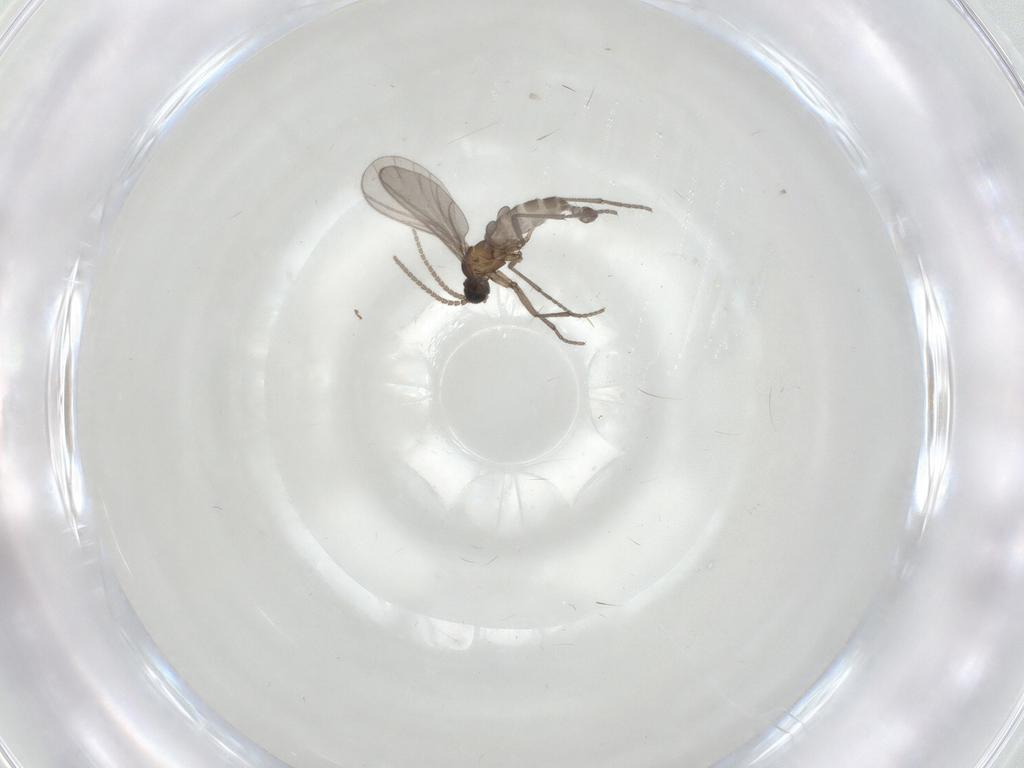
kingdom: Animalia
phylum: Arthropoda
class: Insecta
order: Diptera
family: Sciaridae
